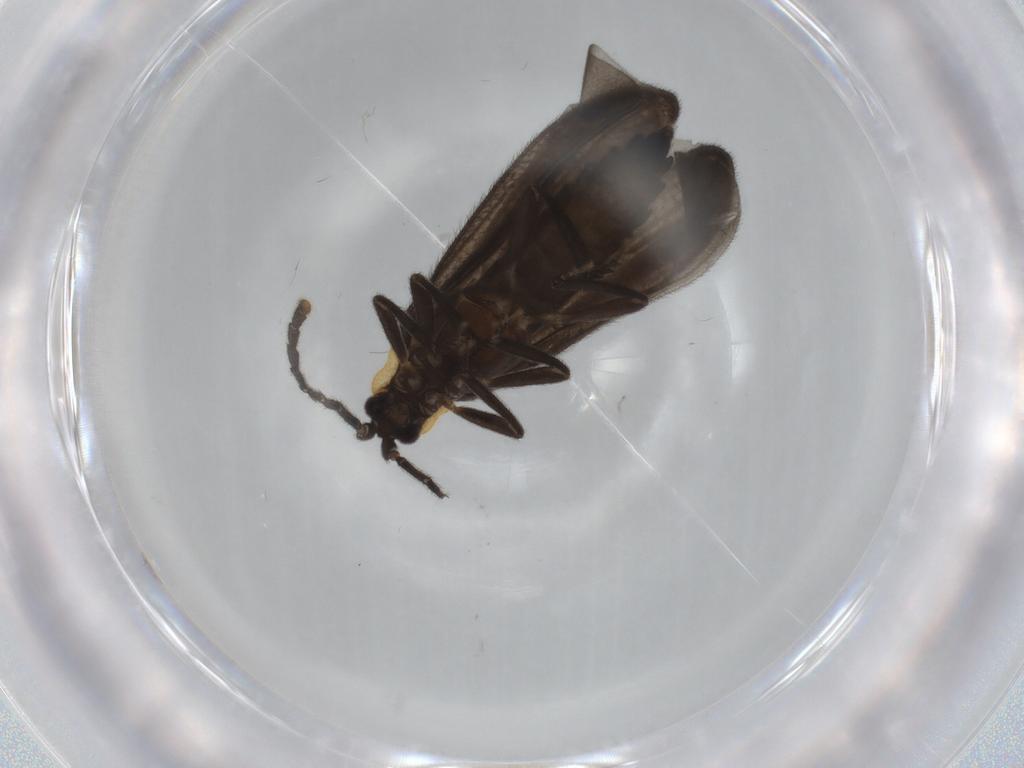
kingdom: Animalia
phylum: Arthropoda
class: Insecta
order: Coleoptera
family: Lycidae
